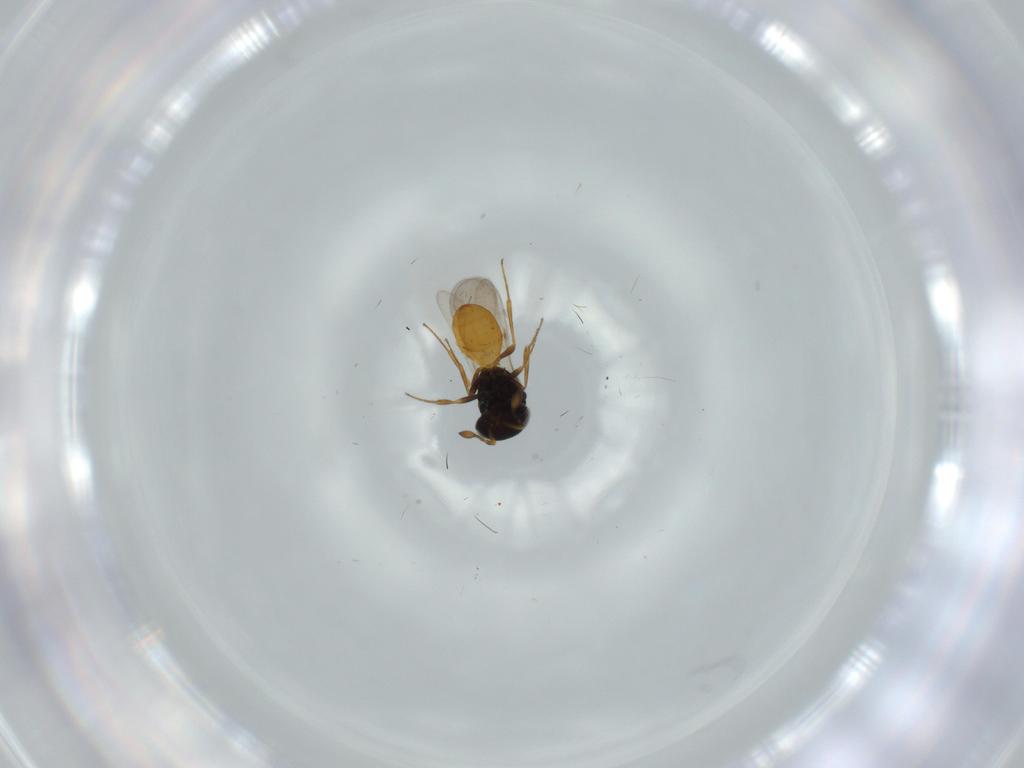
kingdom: Animalia
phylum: Arthropoda
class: Insecta
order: Hymenoptera
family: Scelionidae
